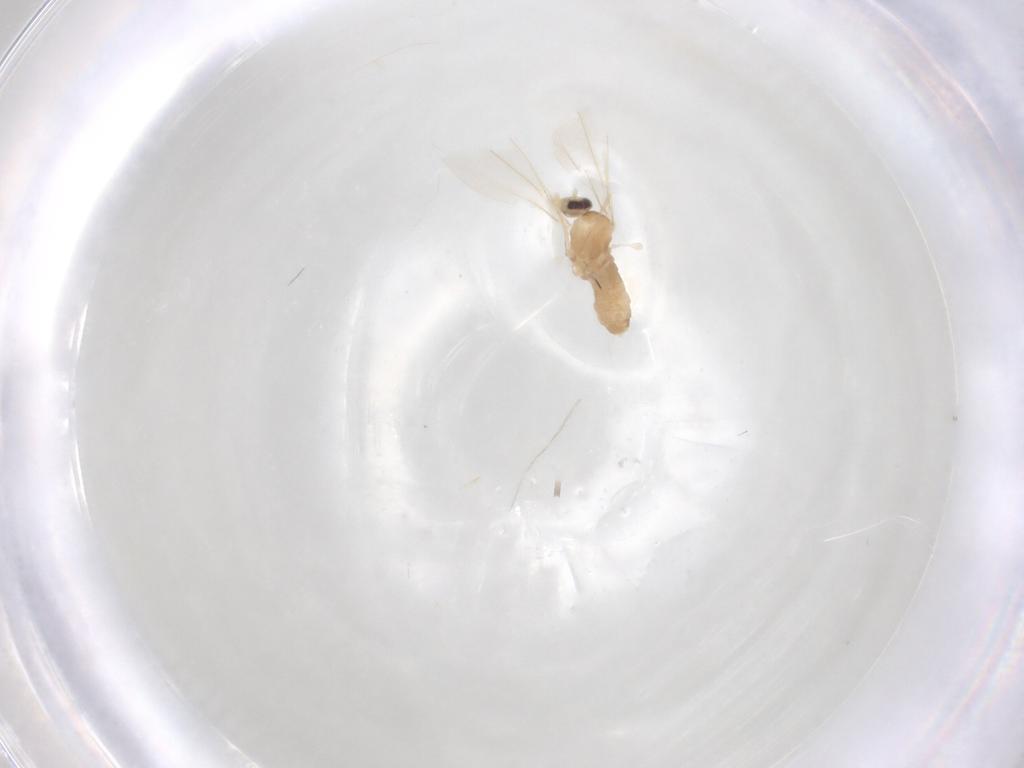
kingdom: Animalia
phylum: Arthropoda
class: Insecta
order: Diptera
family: Cecidomyiidae
